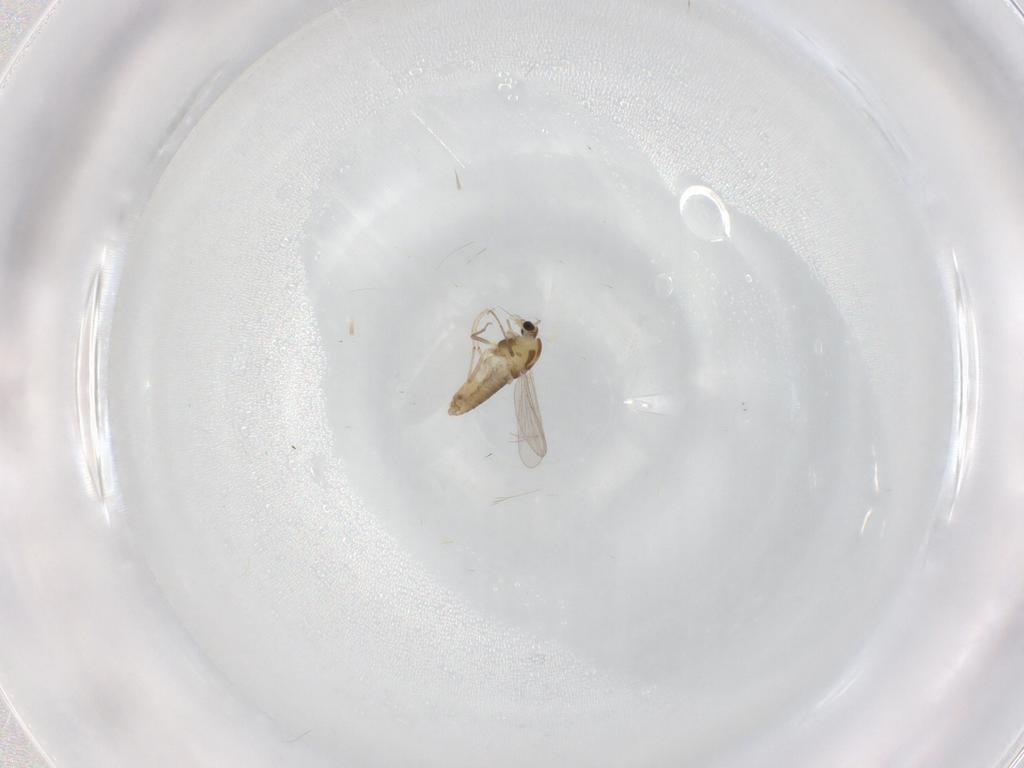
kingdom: Animalia
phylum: Arthropoda
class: Insecta
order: Diptera
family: Chironomidae
